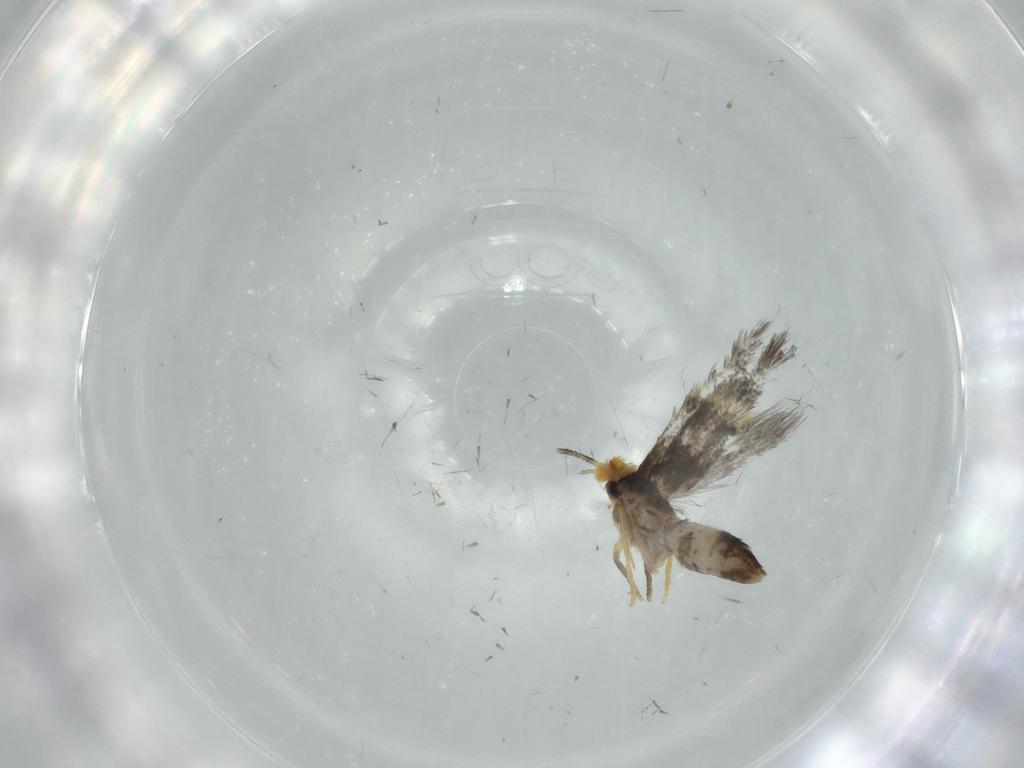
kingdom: Animalia
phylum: Arthropoda
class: Insecta
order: Lepidoptera
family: Nepticulidae
